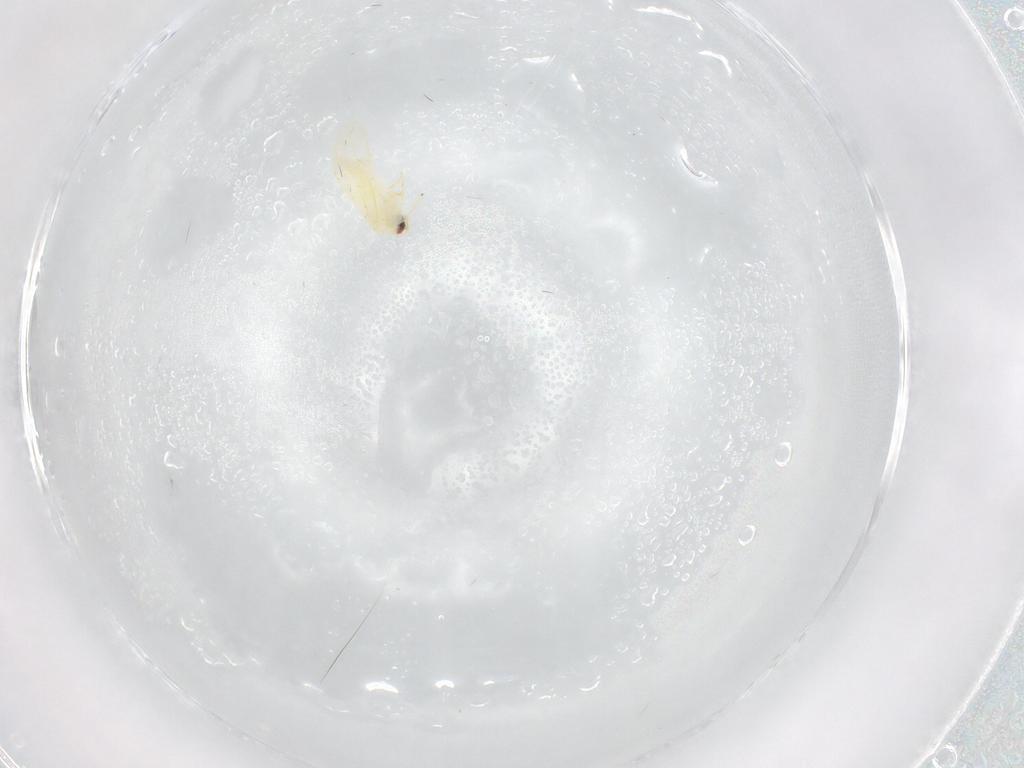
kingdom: Animalia
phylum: Arthropoda
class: Insecta
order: Hemiptera
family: Aleyrodidae
